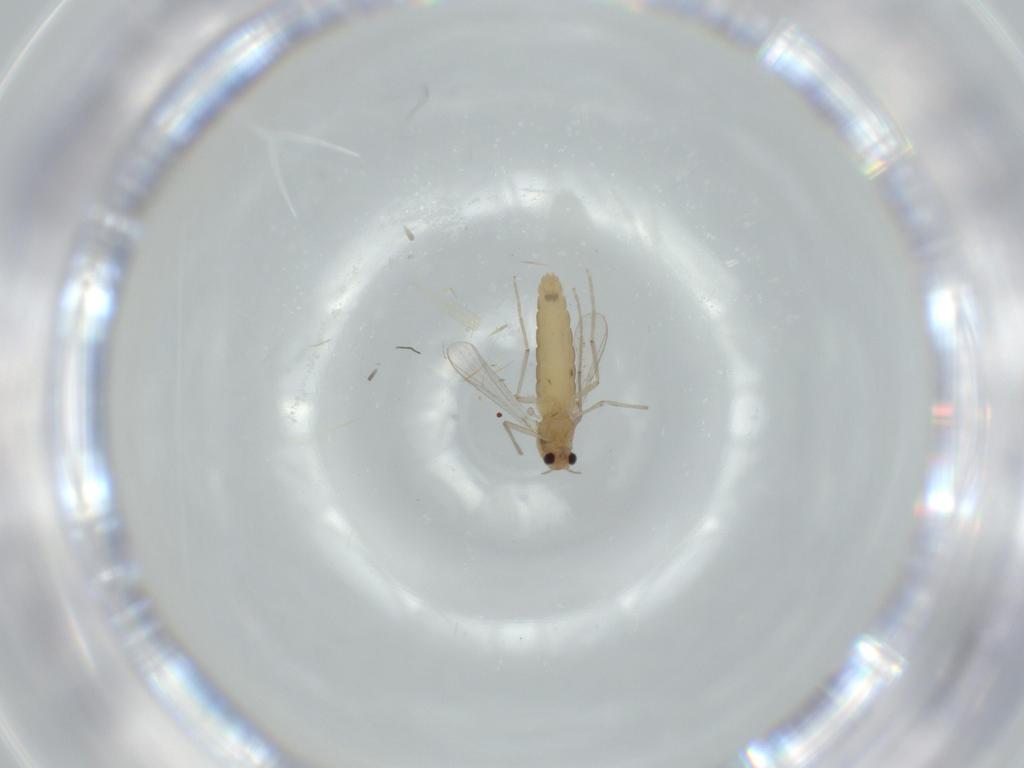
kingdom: Animalia
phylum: Arthropoda
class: Insecta
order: Diptera
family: Chironomidae
